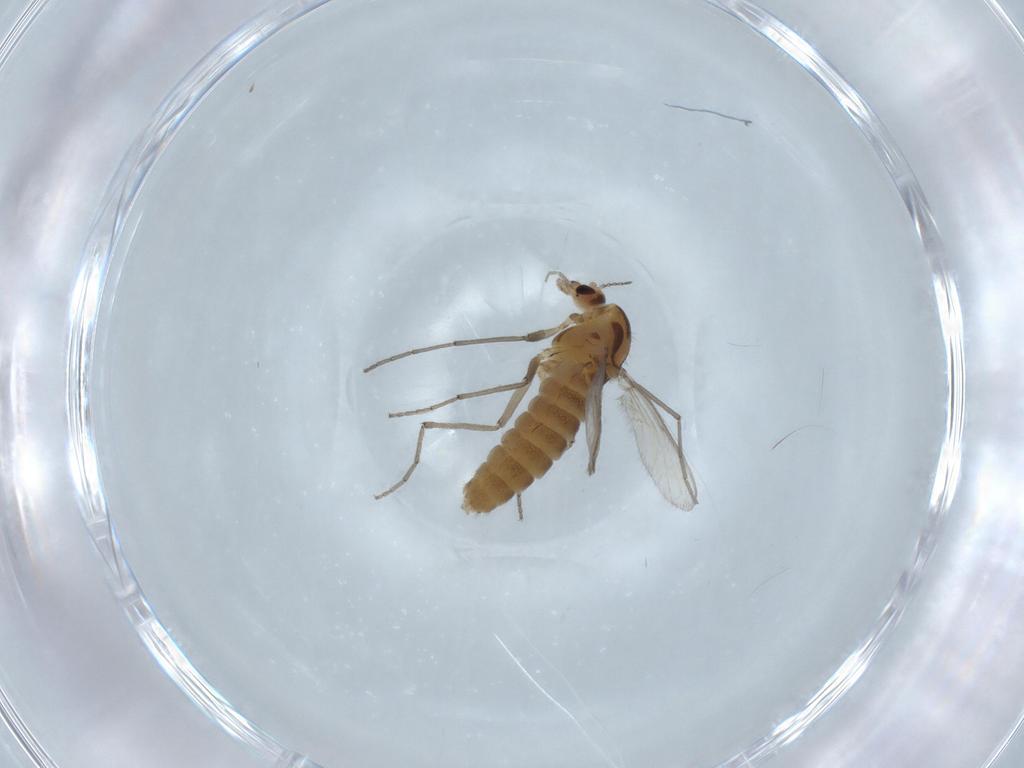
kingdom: Animalia
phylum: Arthropoda
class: Insecta
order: Diptera
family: Chironomidae
